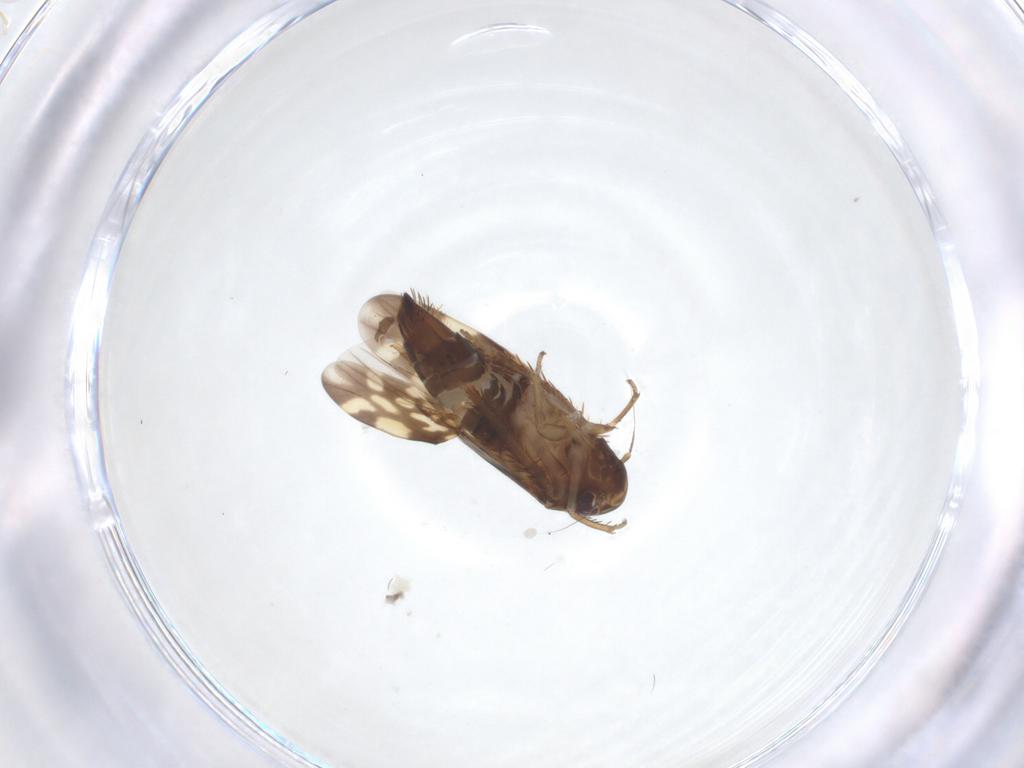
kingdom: Animalia
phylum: Arthropoda
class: Insecta
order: Hemiptera
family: Cicadellidae
